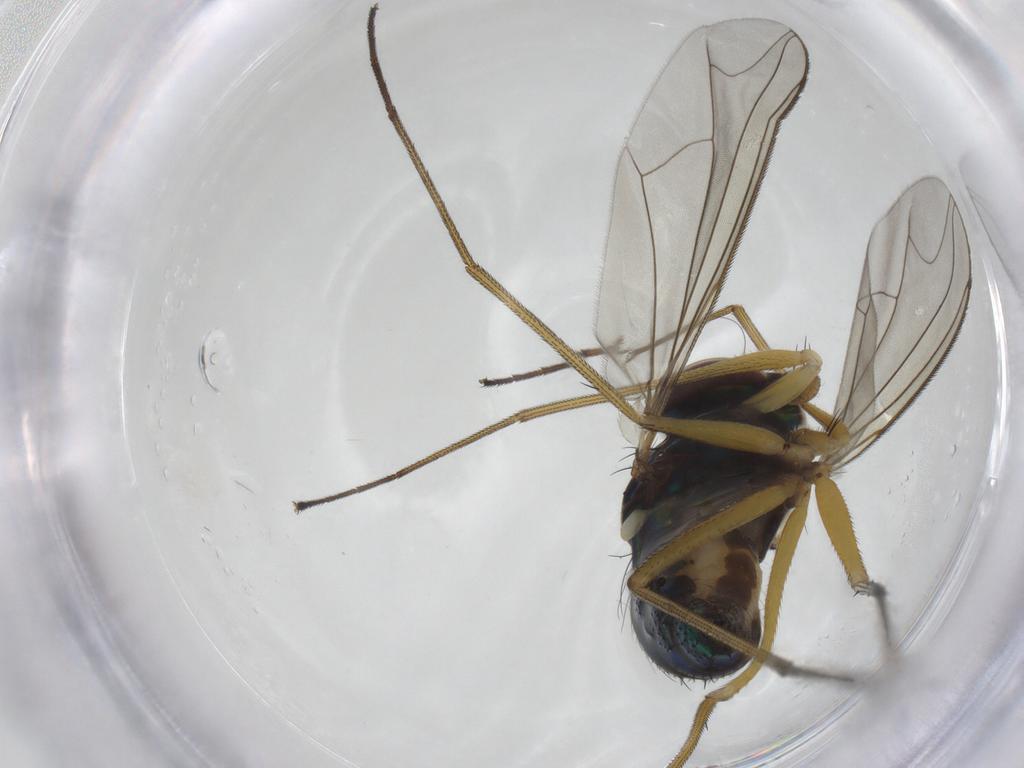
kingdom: Animalia
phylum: Arthropoda
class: Insecta
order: Diptera
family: Dolichopodidae
